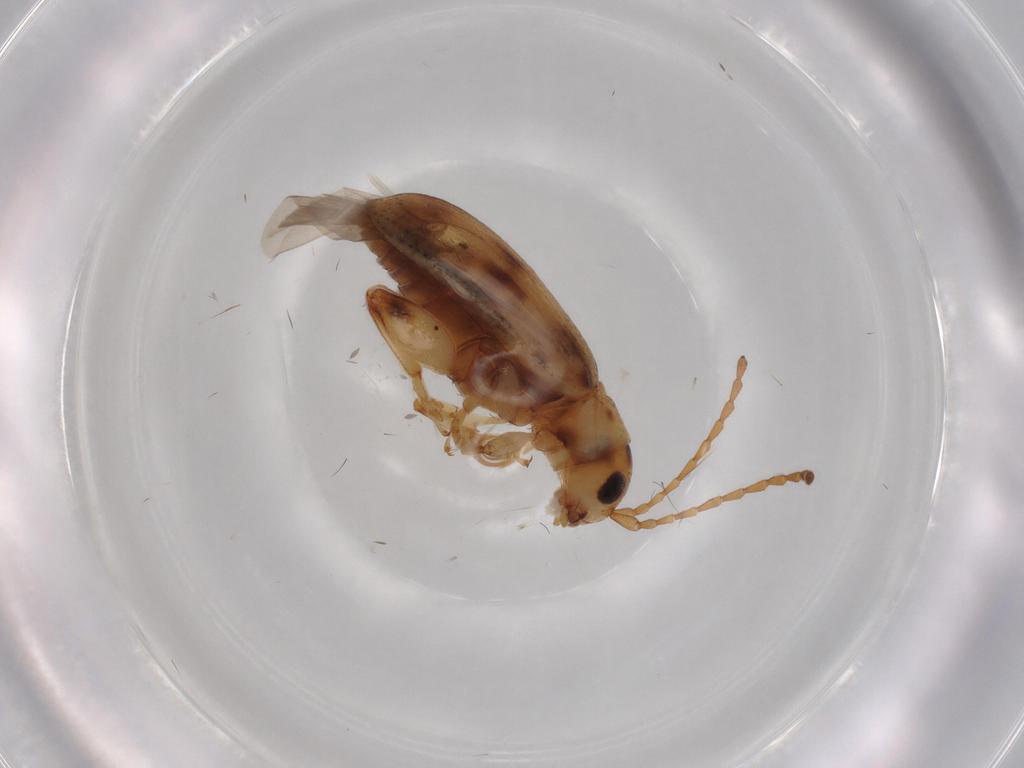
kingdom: Animalia
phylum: Arthropoda
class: Insecta
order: Coleoptera
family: Chrysomelidae
